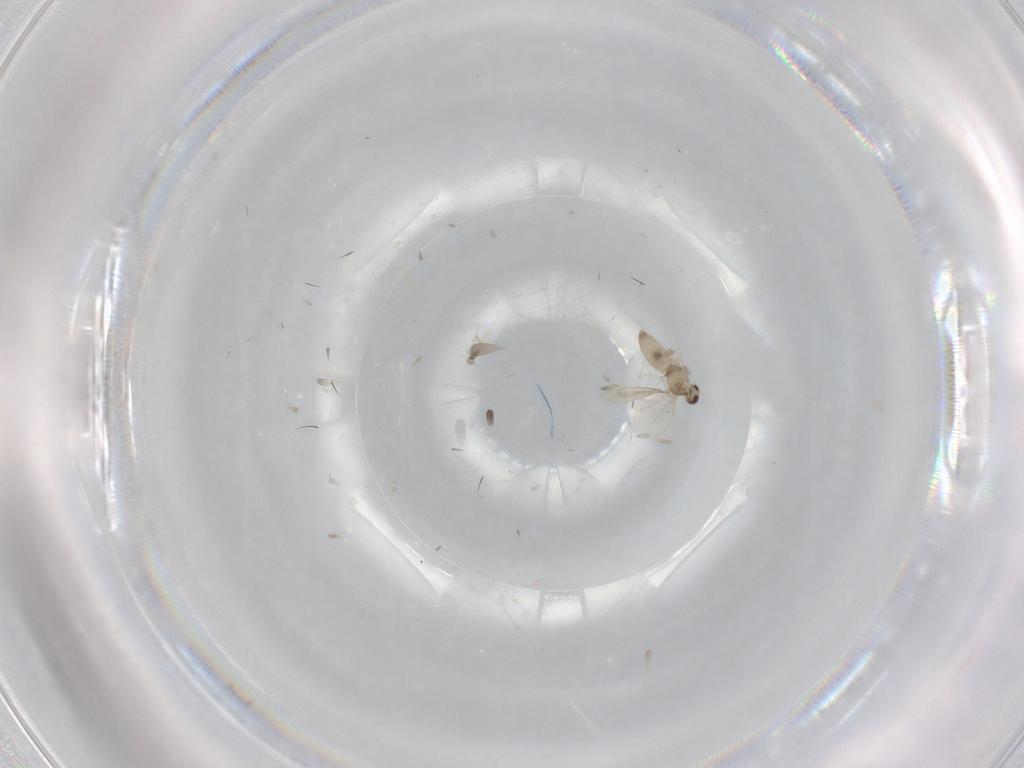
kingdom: Animalia
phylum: Arthropoda
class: Insecta
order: Diptera
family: Cecidomyiidae
